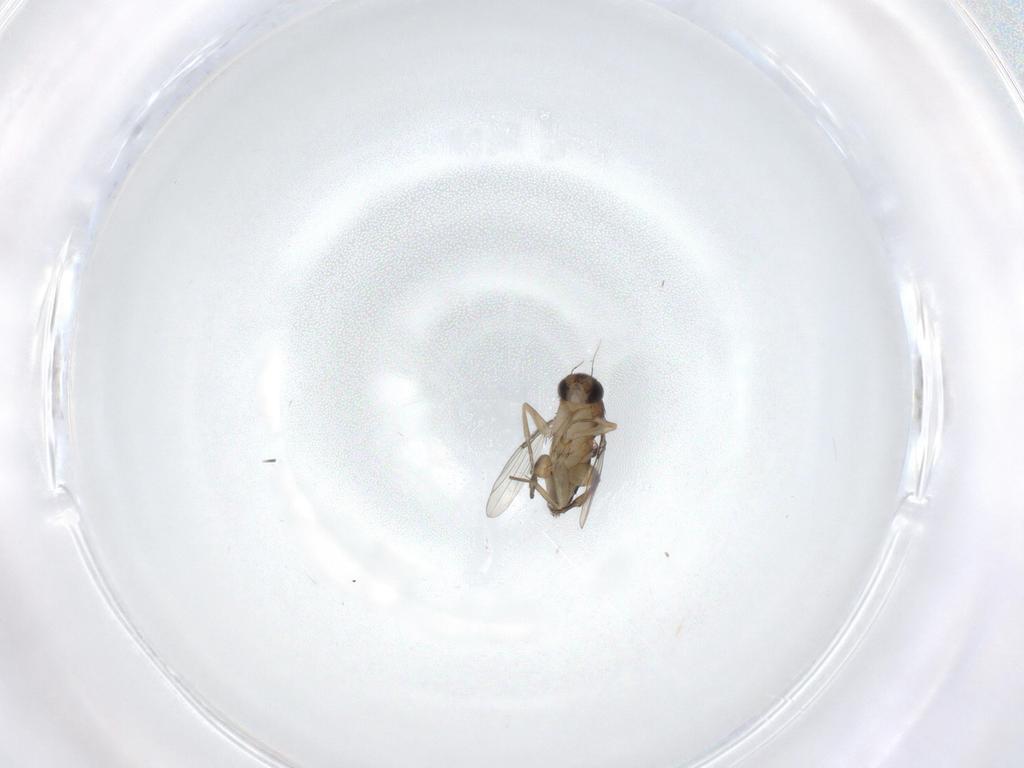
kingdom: Animalia
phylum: Arthropoda
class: Insecta
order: Diptera
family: Phoridae
